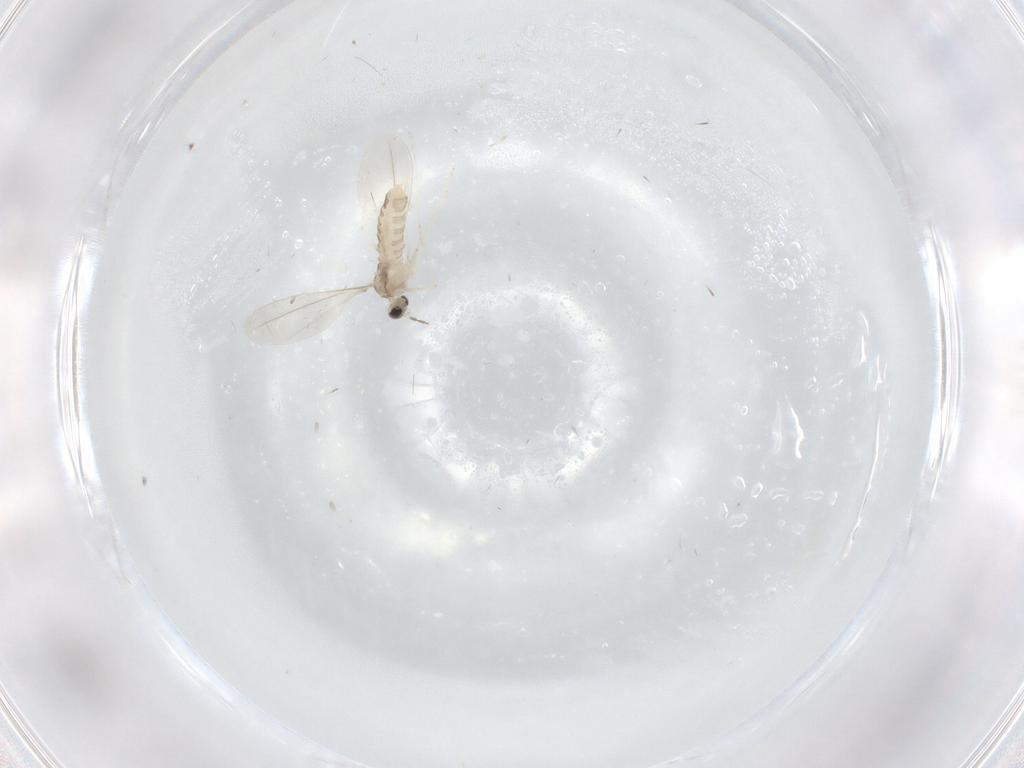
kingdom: Animalia
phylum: Arthropoda
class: Insecta
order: Diptera
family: Cecidomyiidae
